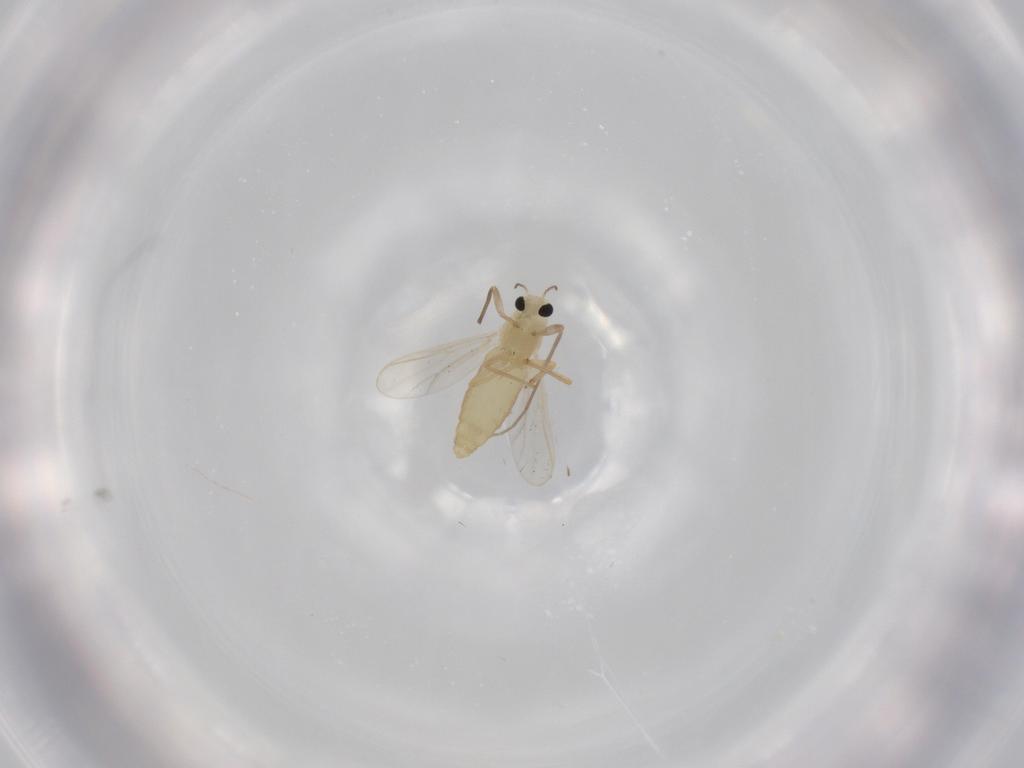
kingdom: Animalia
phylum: Arthropoda
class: Insecta
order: Diptera
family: Chironomidae
